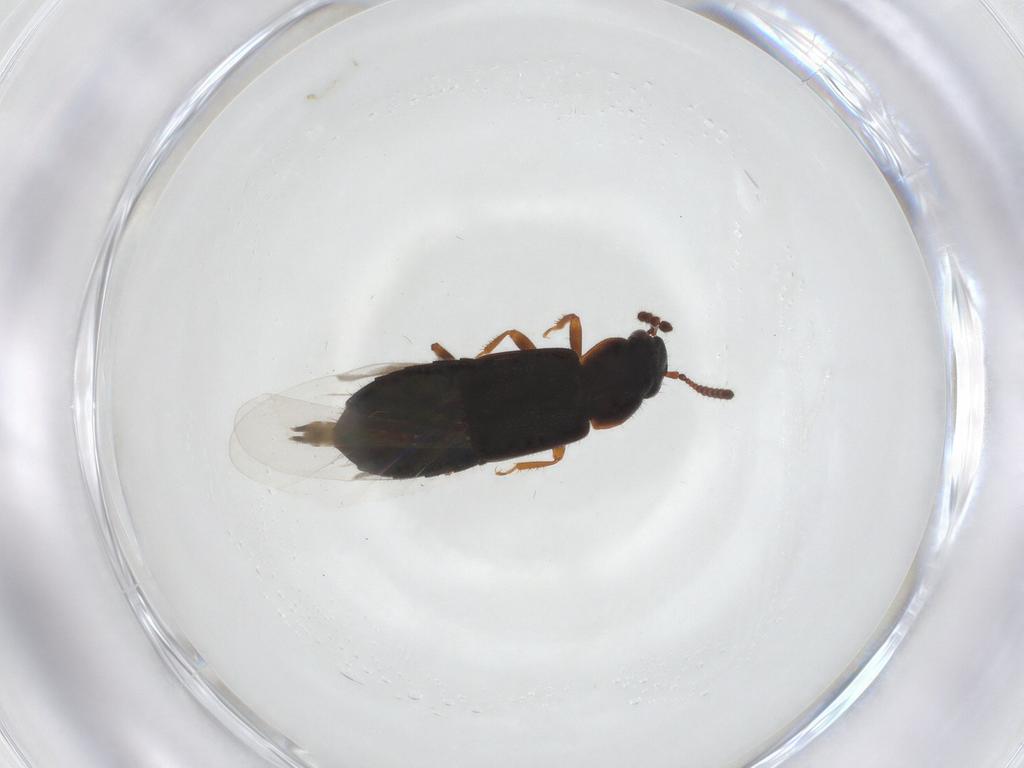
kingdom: Animalia
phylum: Arthropoda
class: Insecta
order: Coleoptera
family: Staphylinidae
